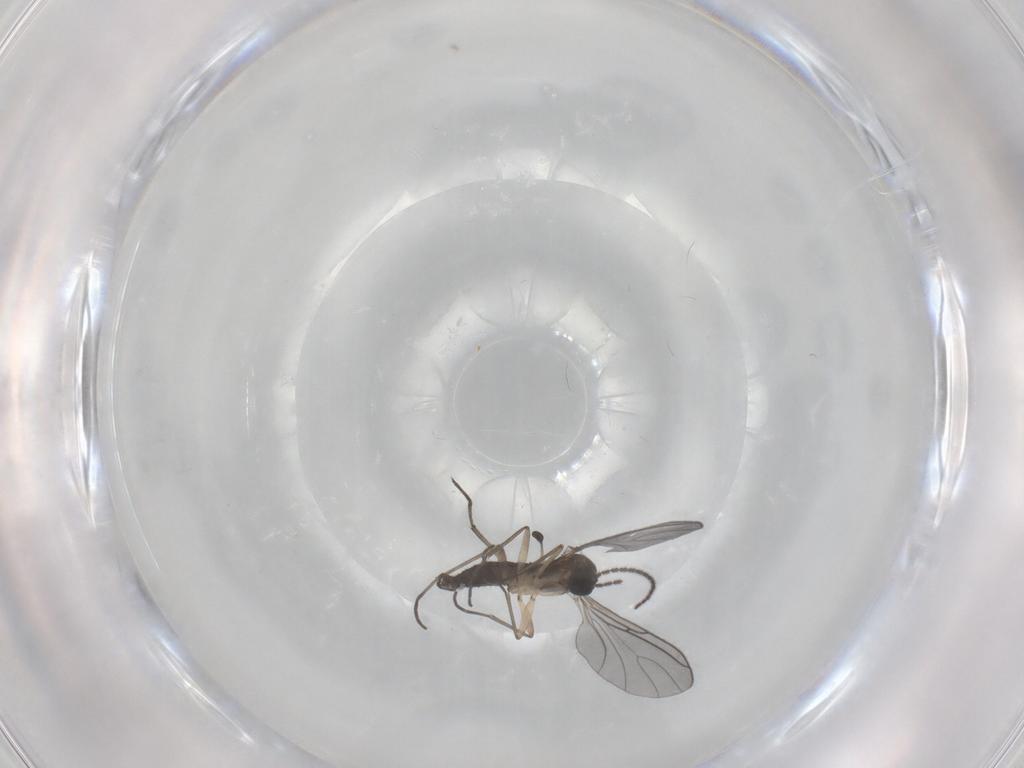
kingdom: Animalia
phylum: Arthropoda
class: Insecta
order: Diptera
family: Limoniidae
